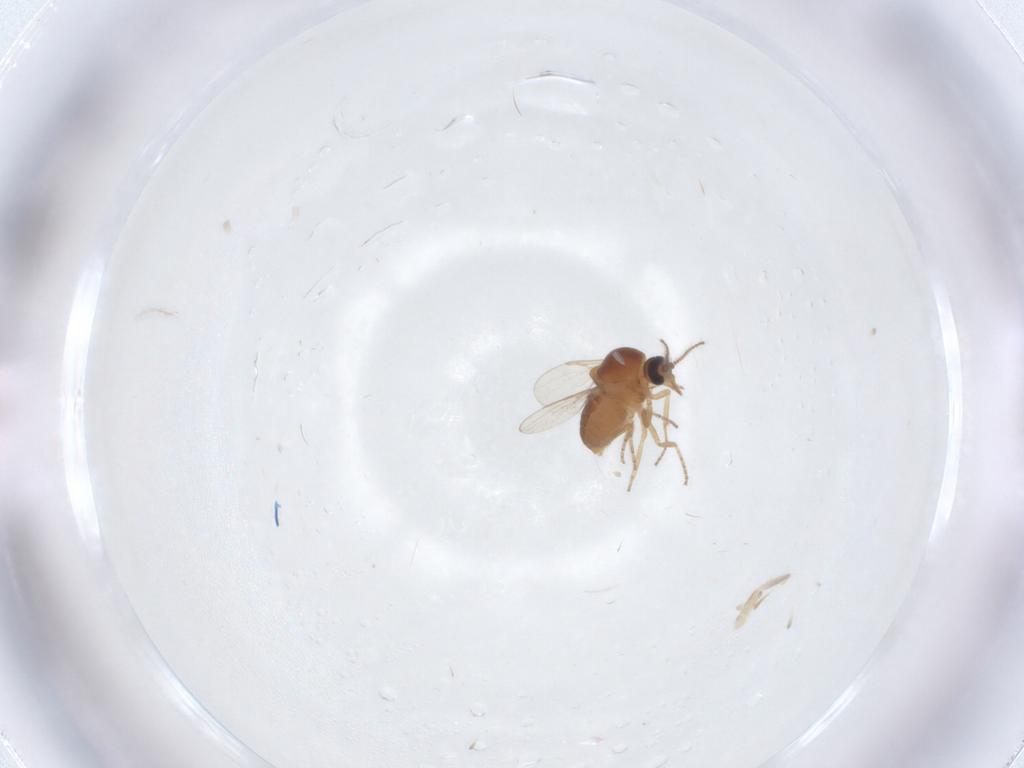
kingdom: Animalia
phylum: Arthropoda
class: Insecta
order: Diptera
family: Ceratopogonidae
